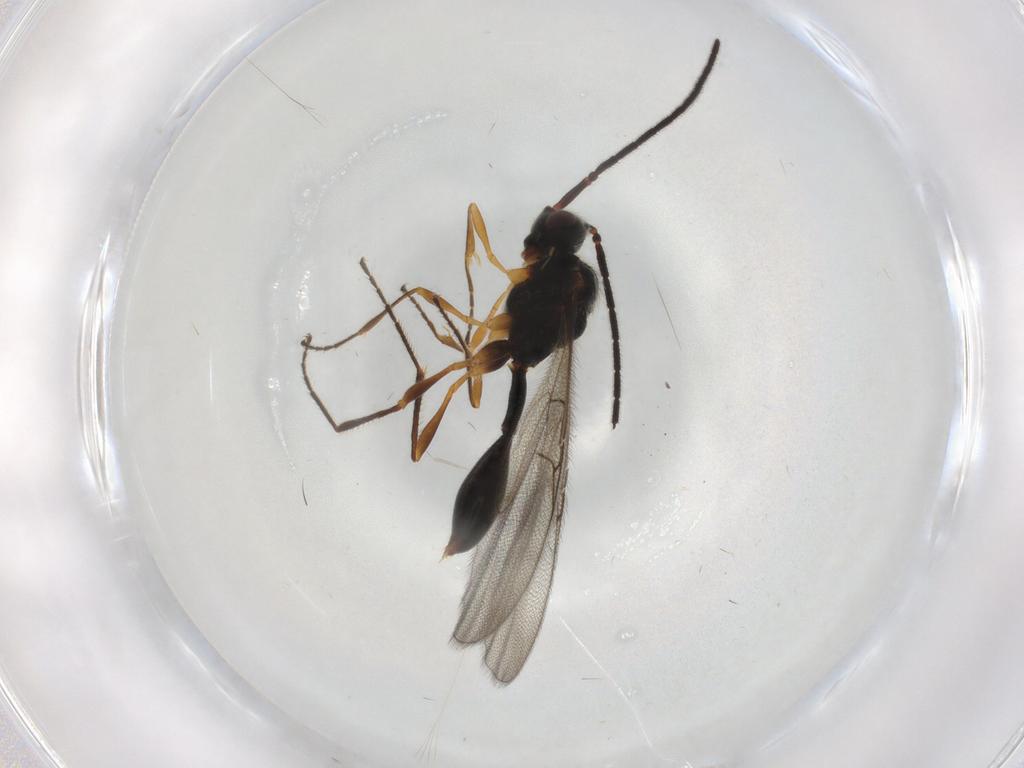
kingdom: Animalia
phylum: Arthropoda
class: Insecta
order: Hymenoptera
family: Diapriidae
